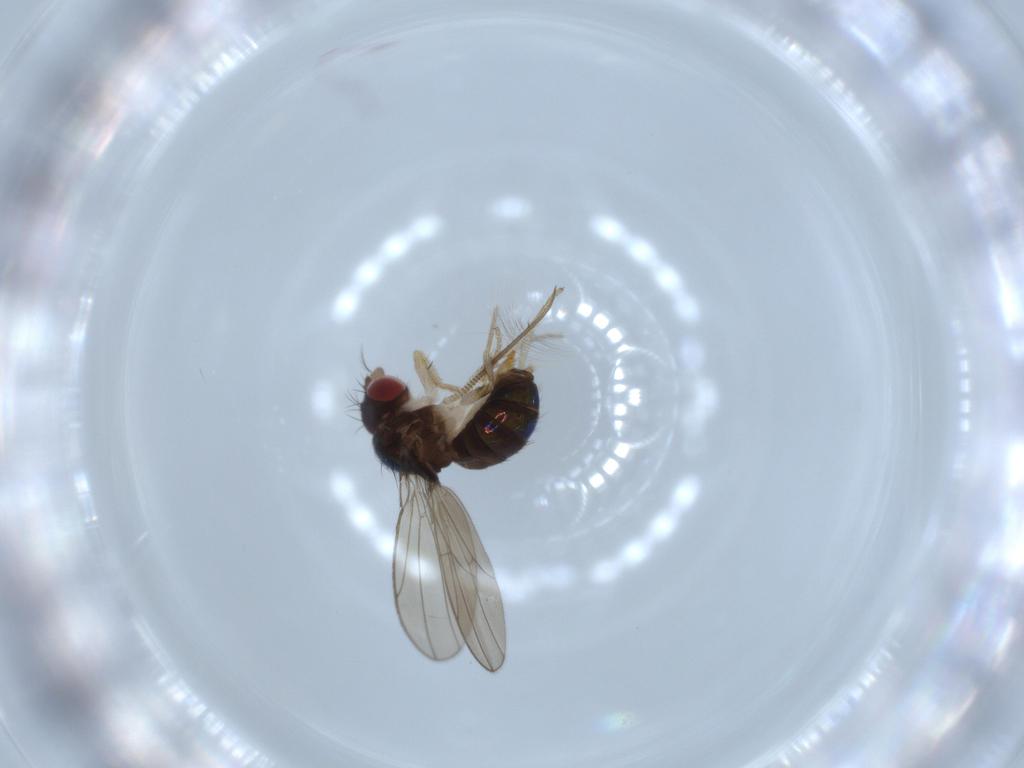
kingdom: Animalia
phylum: Arthropoda
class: Insecta
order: Diptera
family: Drosophilidae
